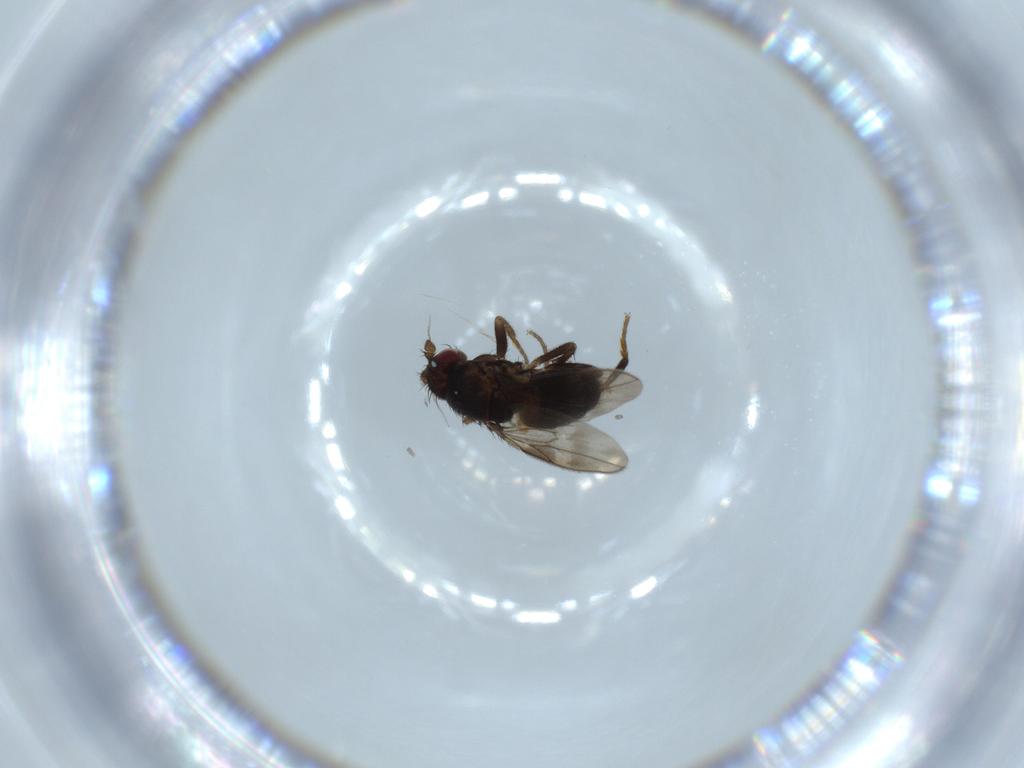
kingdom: Animalia
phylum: Arthropoda
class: Insecta
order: Diptera
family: Sphaeroceridae
